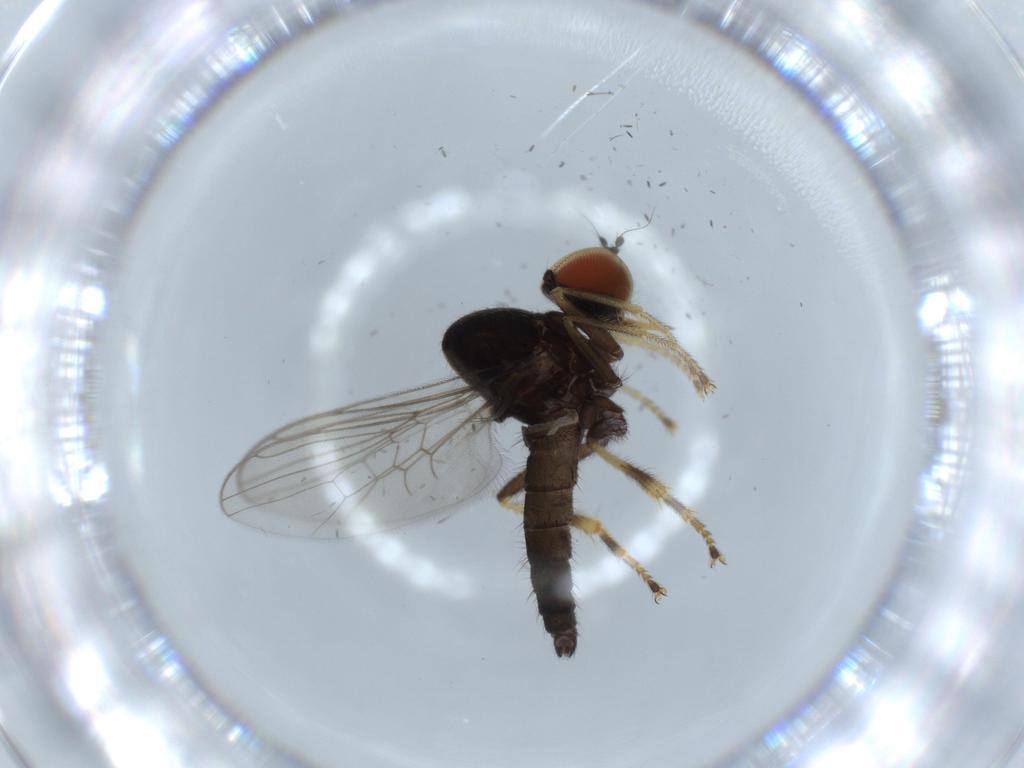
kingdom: Animalia
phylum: Arthropoda
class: Insecta
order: Diptera
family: Hybotidae
